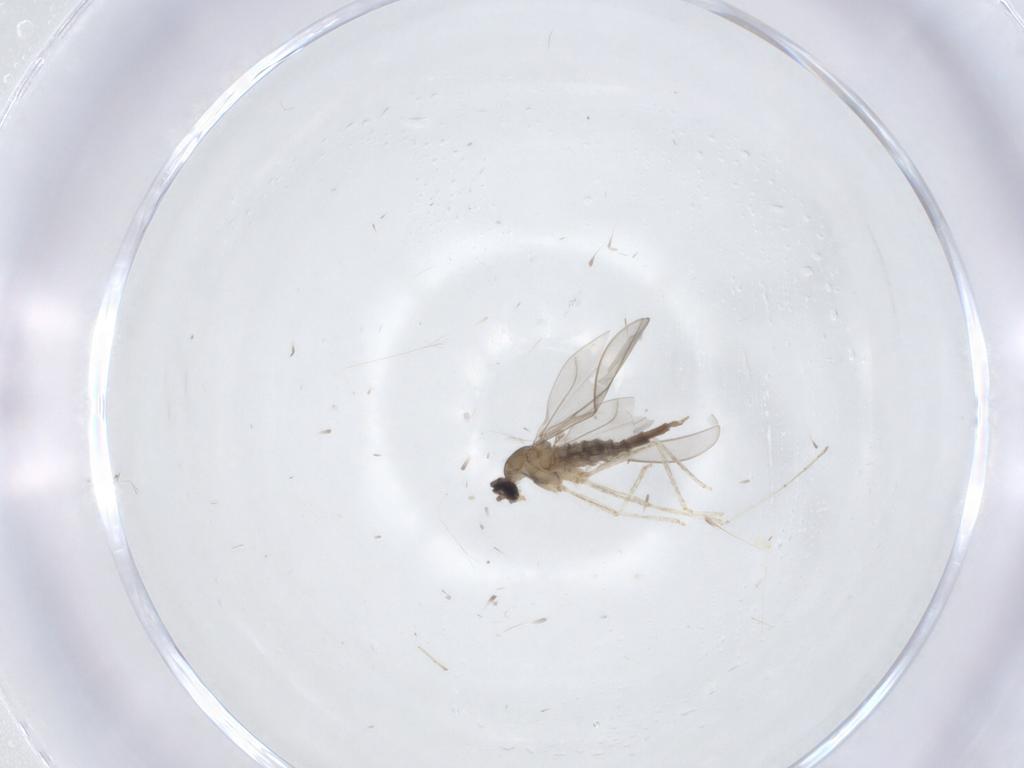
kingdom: Animalia
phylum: Arthropoda
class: Insecta
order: Diptera
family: Cecidomyiidae
